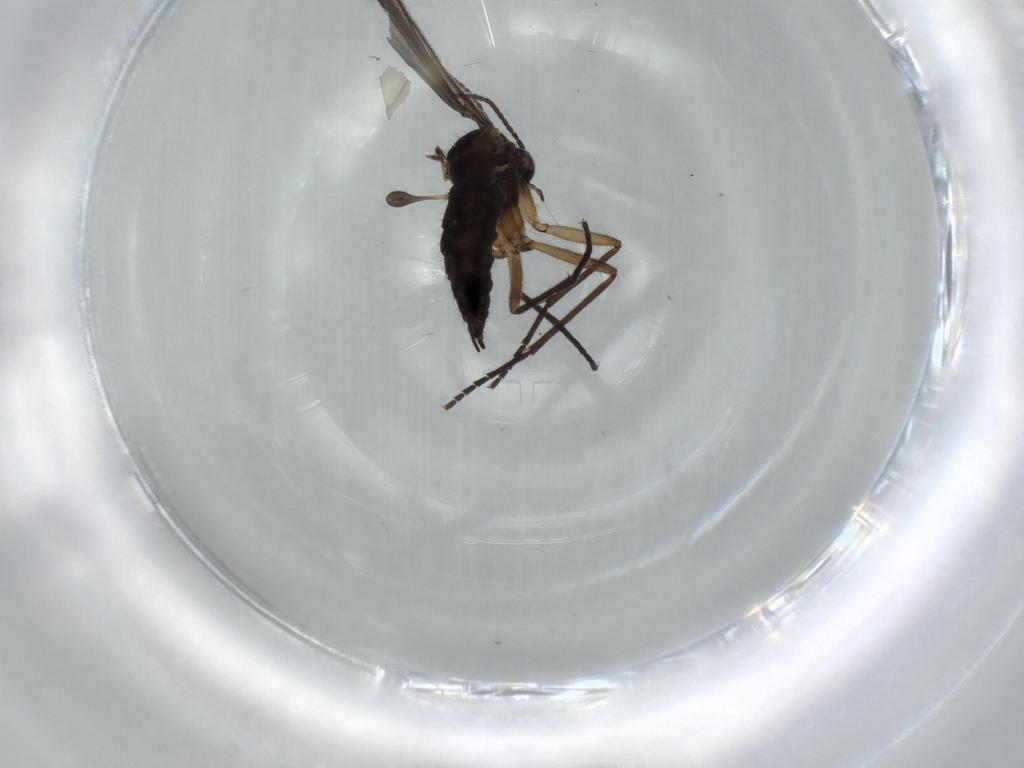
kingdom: Animalia
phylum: Arthropoda
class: Insecta
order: Diptera
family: Sciaridae
